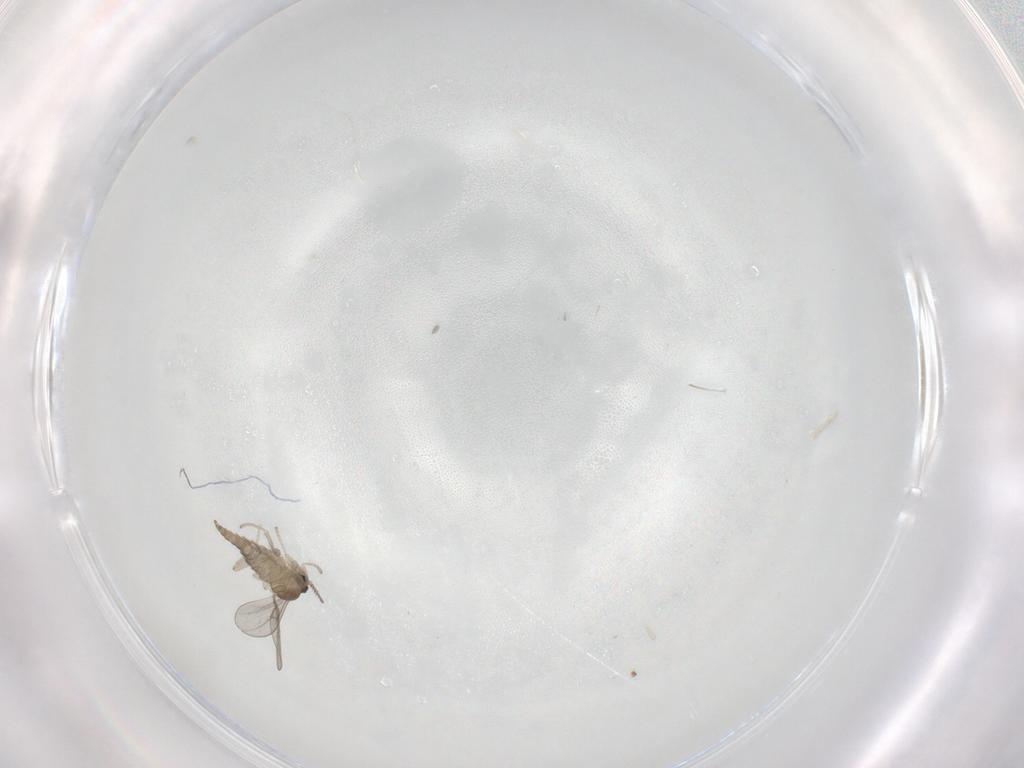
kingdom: Animalia
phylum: Arthropoda
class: Insecta
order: Diptera
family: Cecidomyiidae
